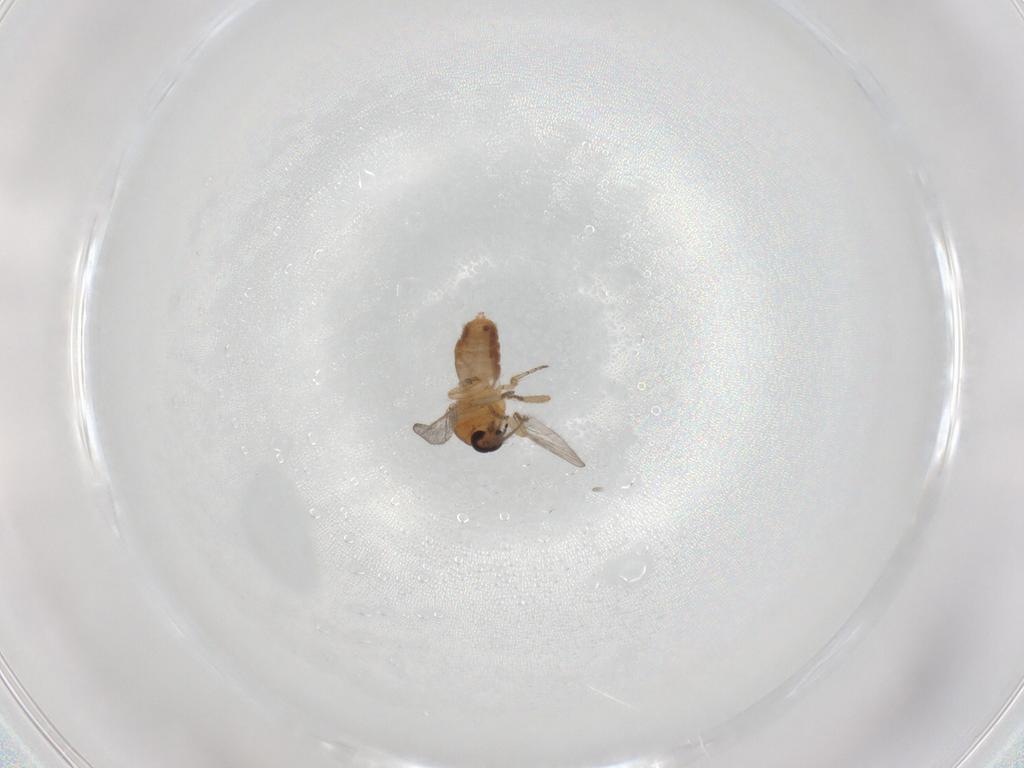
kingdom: Animalia
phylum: Arthropoda
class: Insecta
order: Diptera
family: Ceratopogonidae
